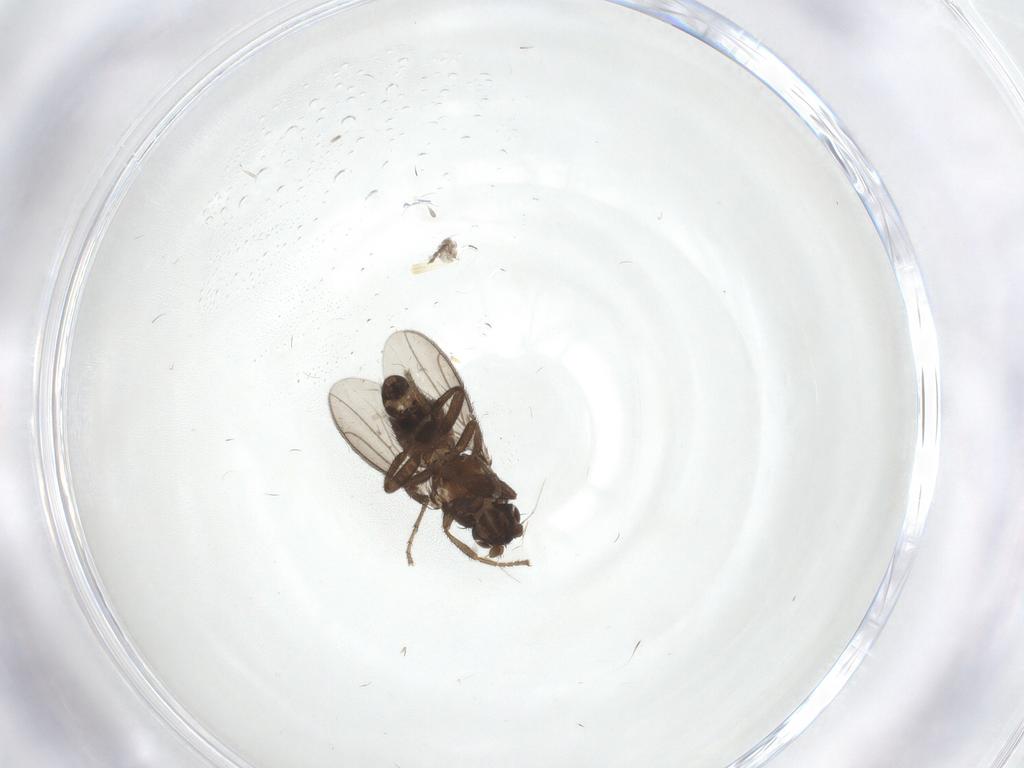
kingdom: Animalia
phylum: Arthropoda
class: Insecta
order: Diptera
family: Sphaeroceridae
